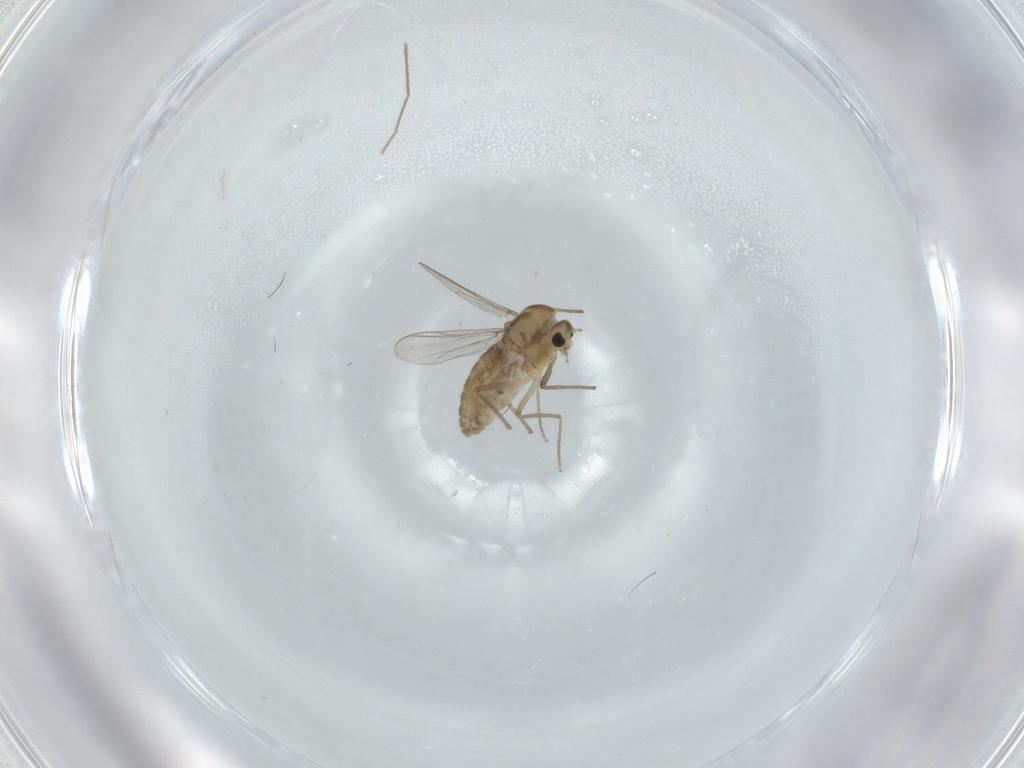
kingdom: Animalia
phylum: Arthropoda
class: Insecta
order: Diptera
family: Chironomidae
